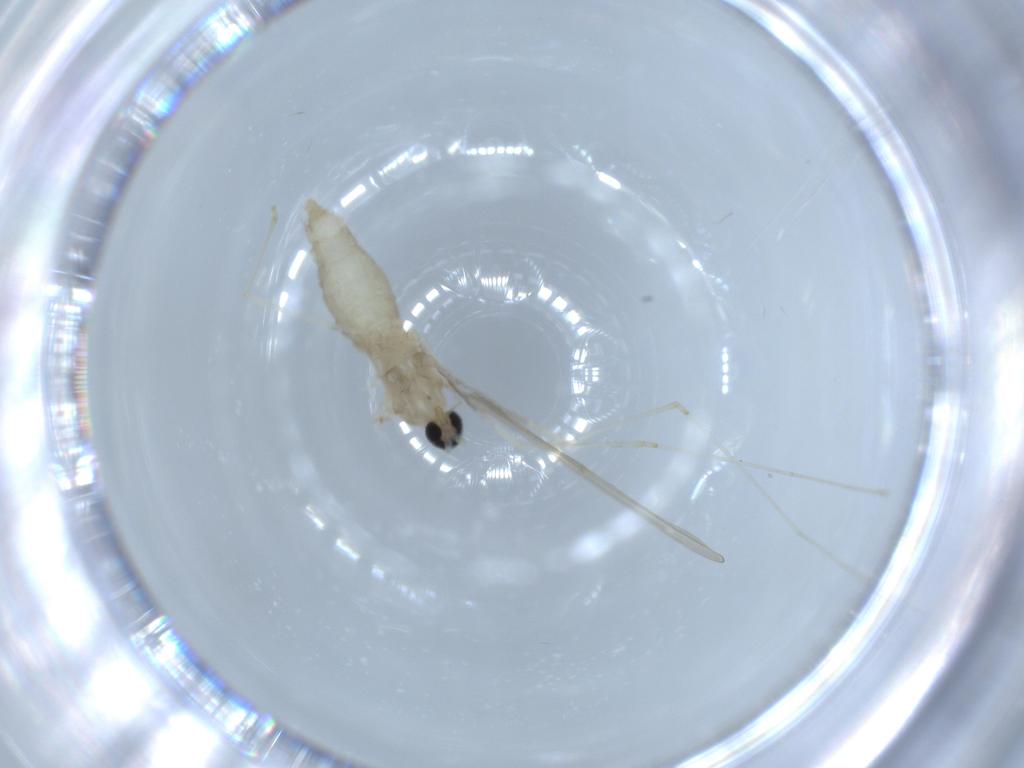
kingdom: Animalia
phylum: Arthropoda
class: Insecta
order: Diptera
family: Cecidomyiidae
